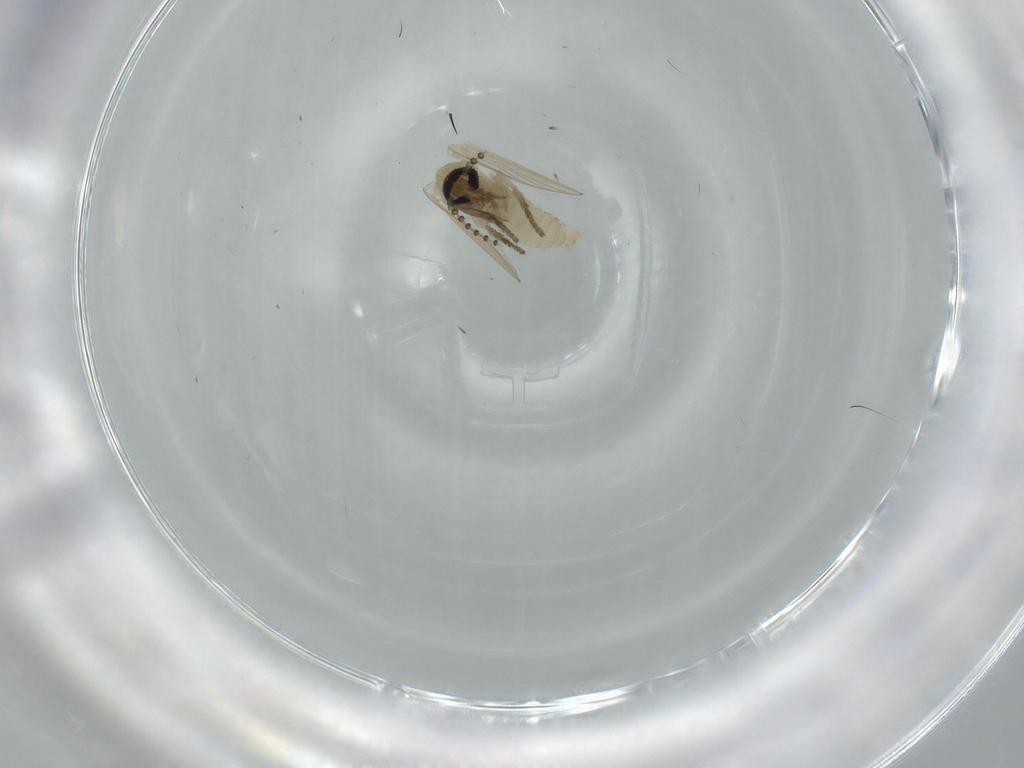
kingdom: Animalia
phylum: Arthropoda
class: Insecta
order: Diptera
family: Psychodidae
